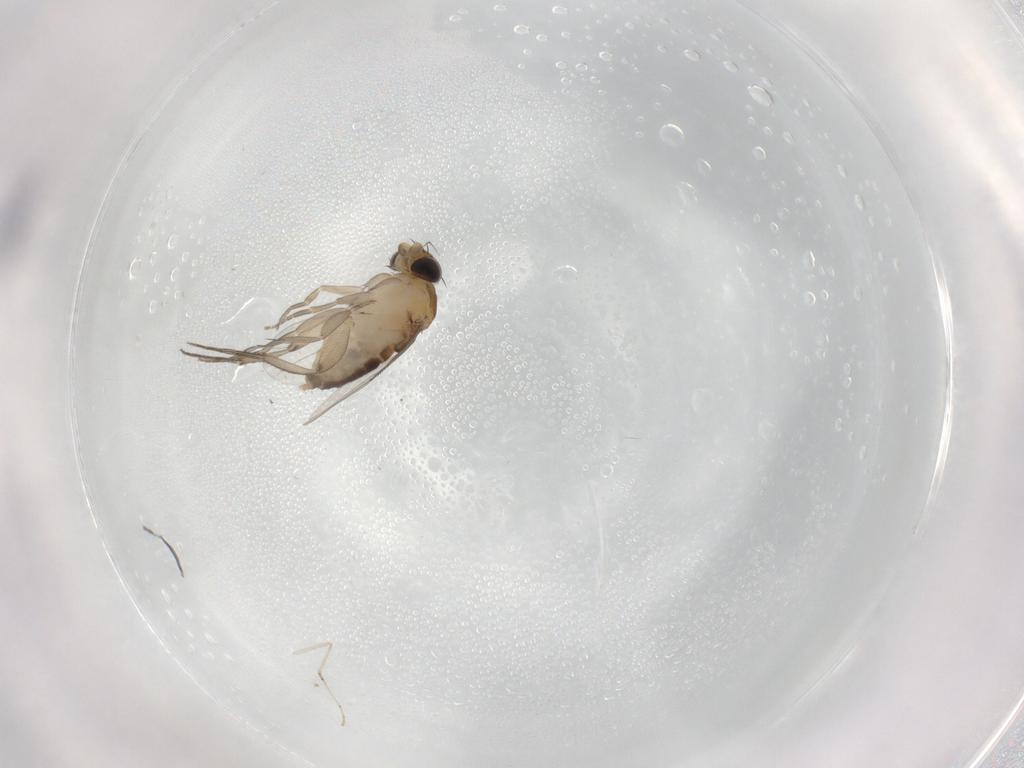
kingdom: Animalia
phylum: Arthropoda
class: Insecta
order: Diptera
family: Phoridae
